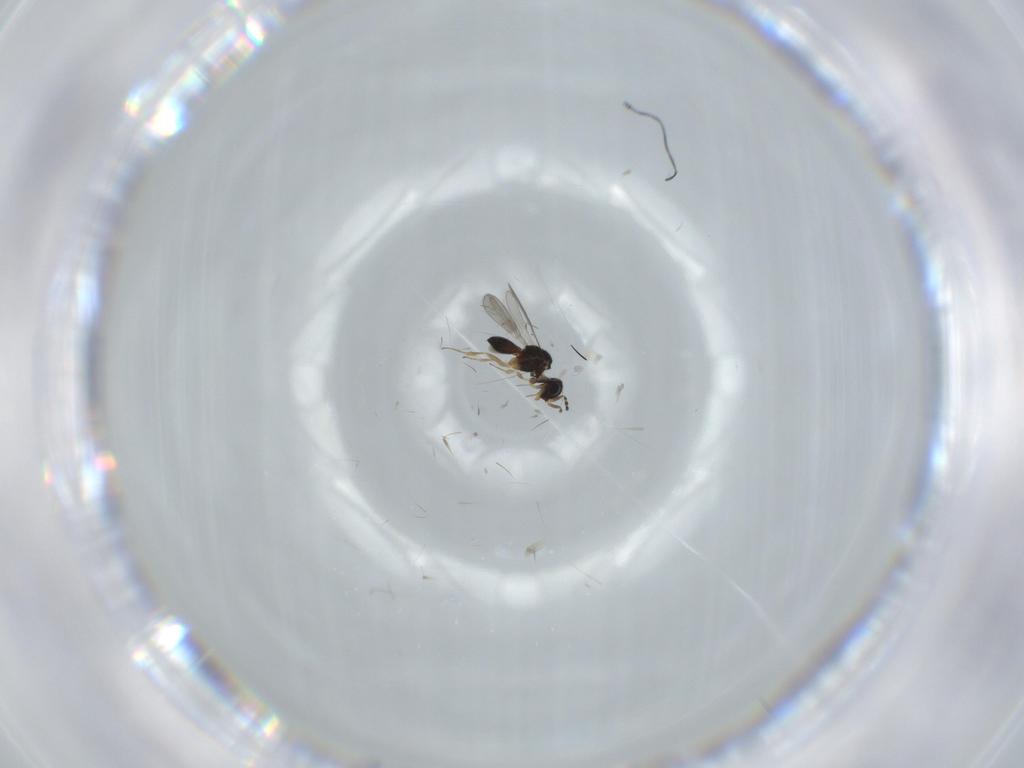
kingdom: Animalia
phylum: Arthropoda
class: Insecta
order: Hymenoptera
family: Scelionidae
